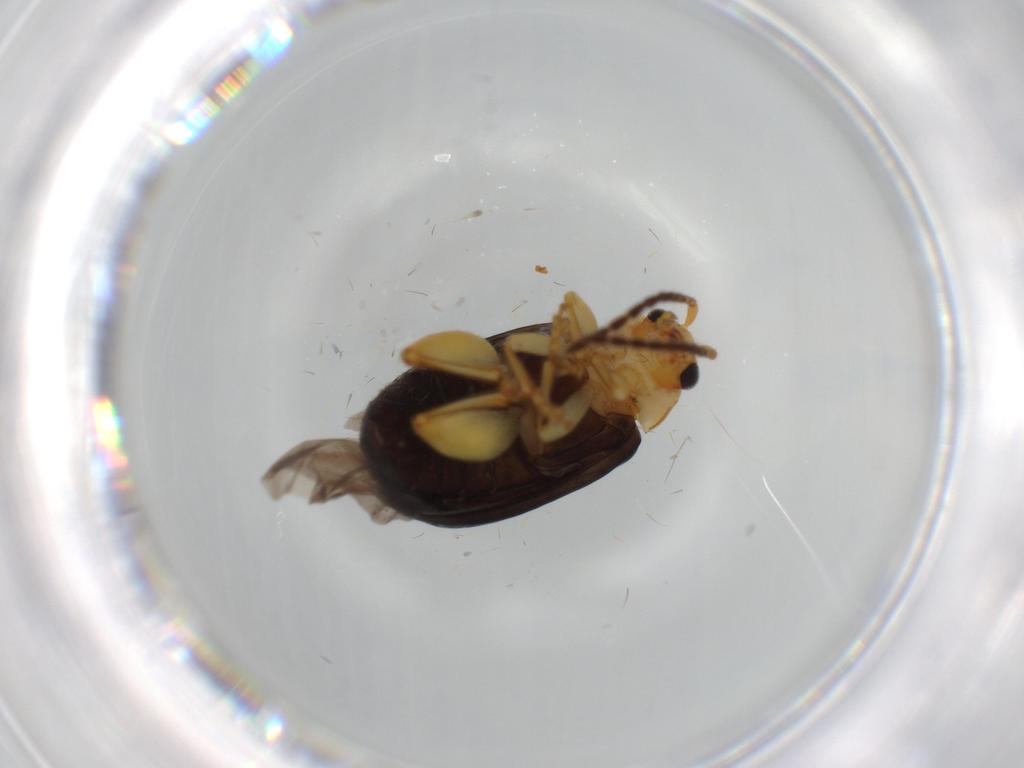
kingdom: Animalia
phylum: Arthropoda
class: Insecta
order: Coleoptera
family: Chrysomelidae
